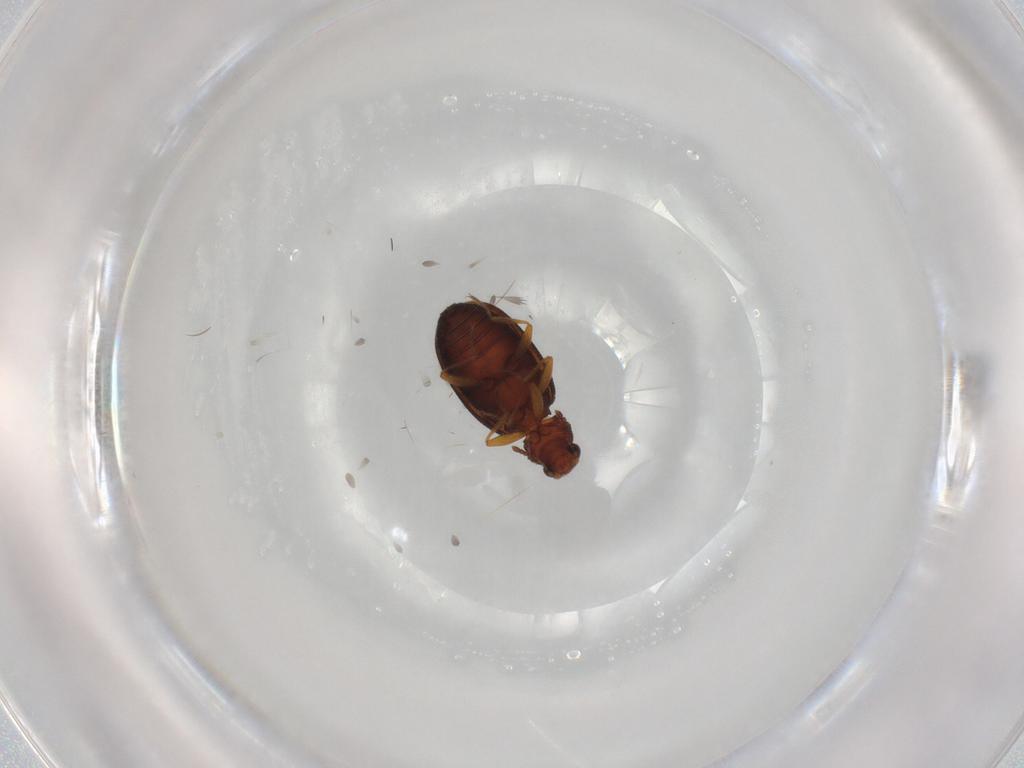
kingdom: Animalia
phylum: Arthropoda
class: Insecta
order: Coleoptera
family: Latridiidae
